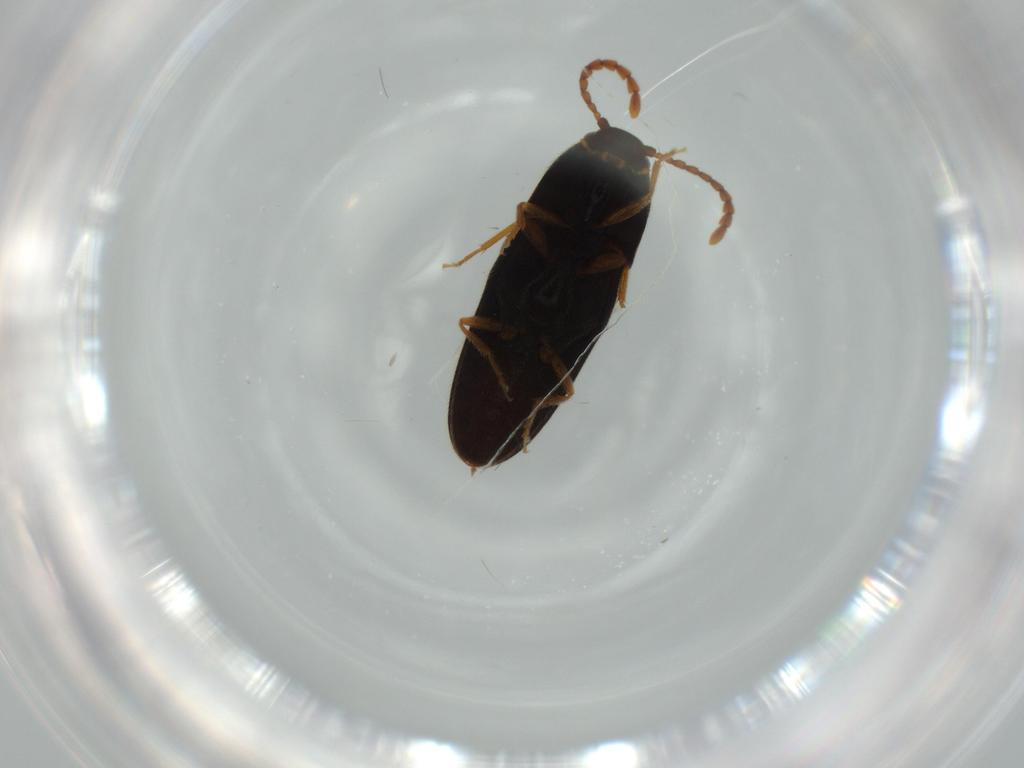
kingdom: Animalia
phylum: Arthropoda
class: Insecta
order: Coleoptera
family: Elateridae
